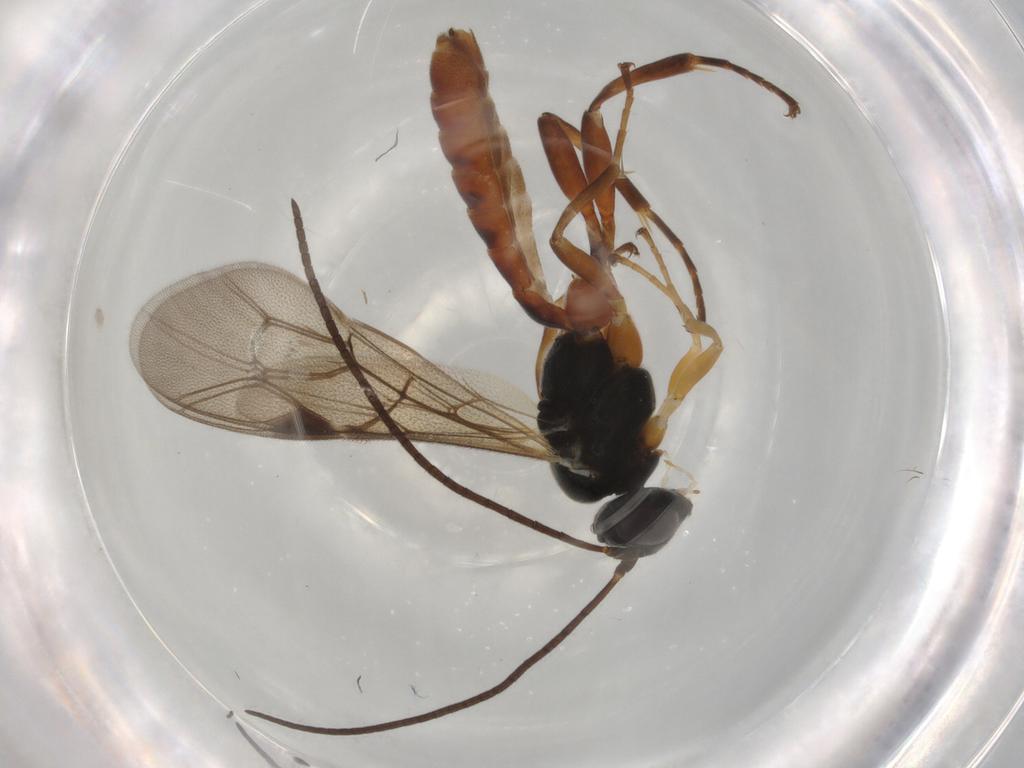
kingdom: Animalia
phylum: Arthropoda
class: Insecta
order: Hymenoptera
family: Ichneumonidae
